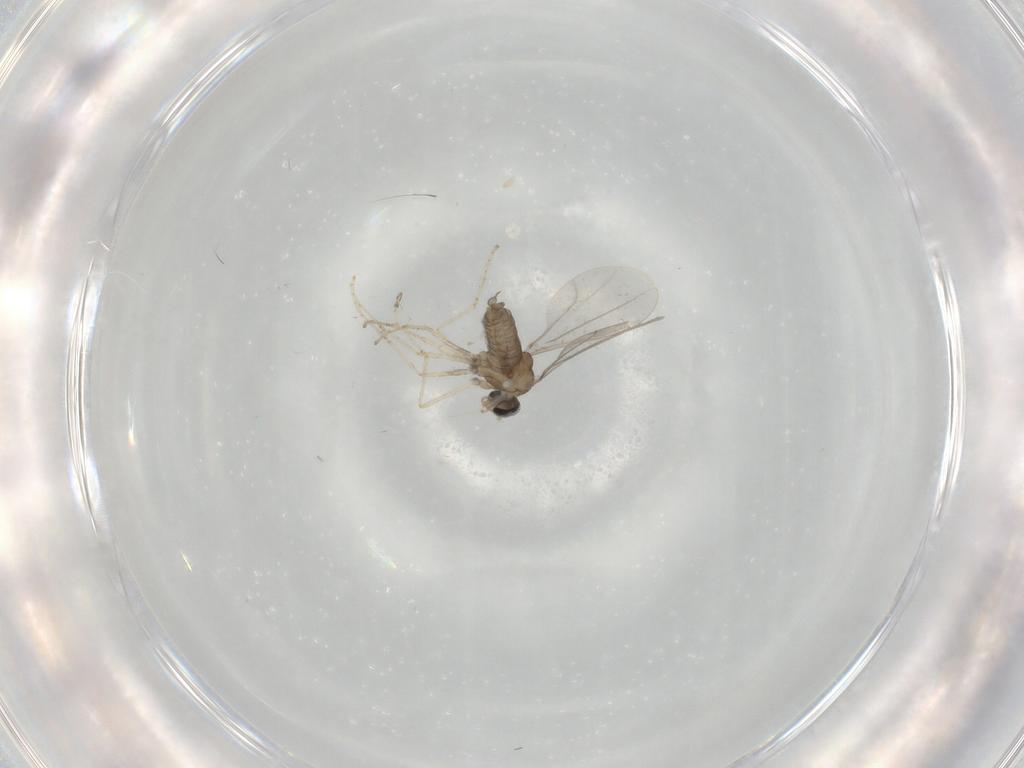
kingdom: Animalia
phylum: Arthropoda
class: Insecta
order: Diptera
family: Cecidomyiidae
